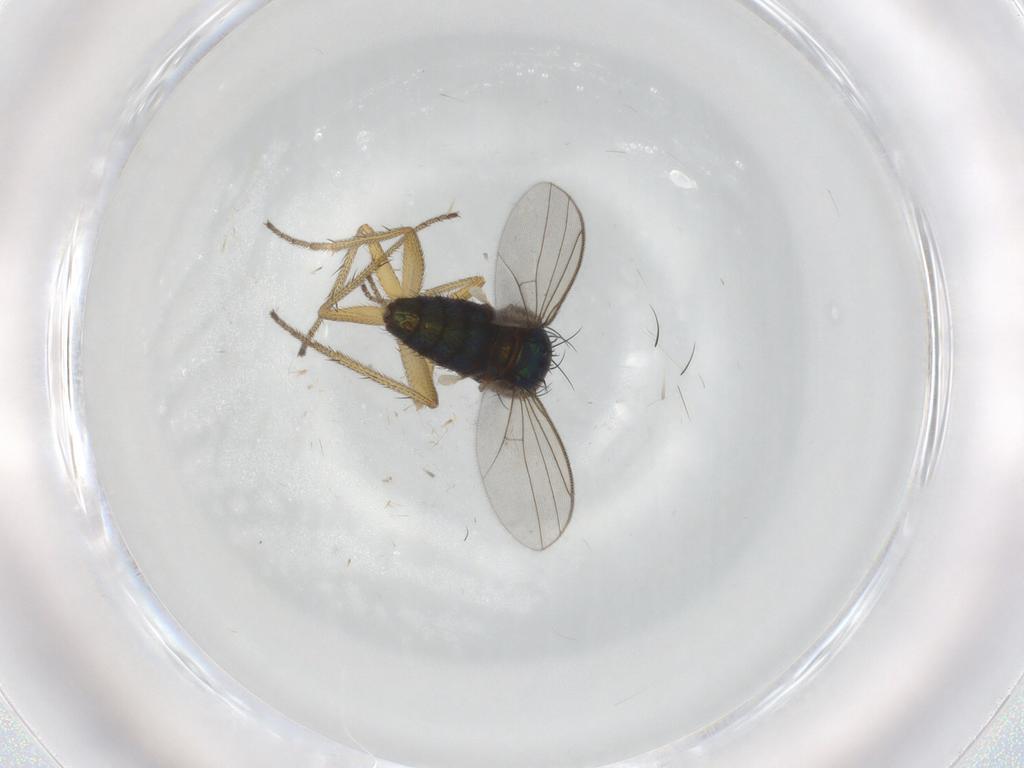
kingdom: Animalia
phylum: Arthropoda
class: Insecta
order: Diptera
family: Dolichopodidae
